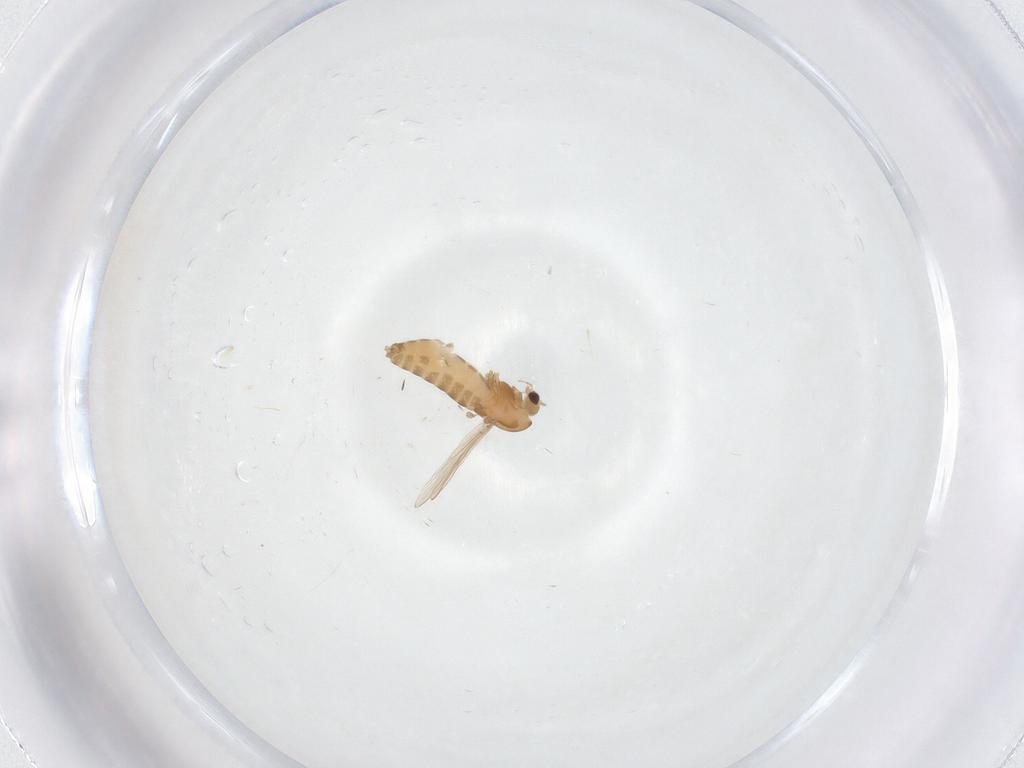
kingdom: Animalia
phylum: Arthropoda
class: Insecta
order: Diptera
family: Chironomidae
